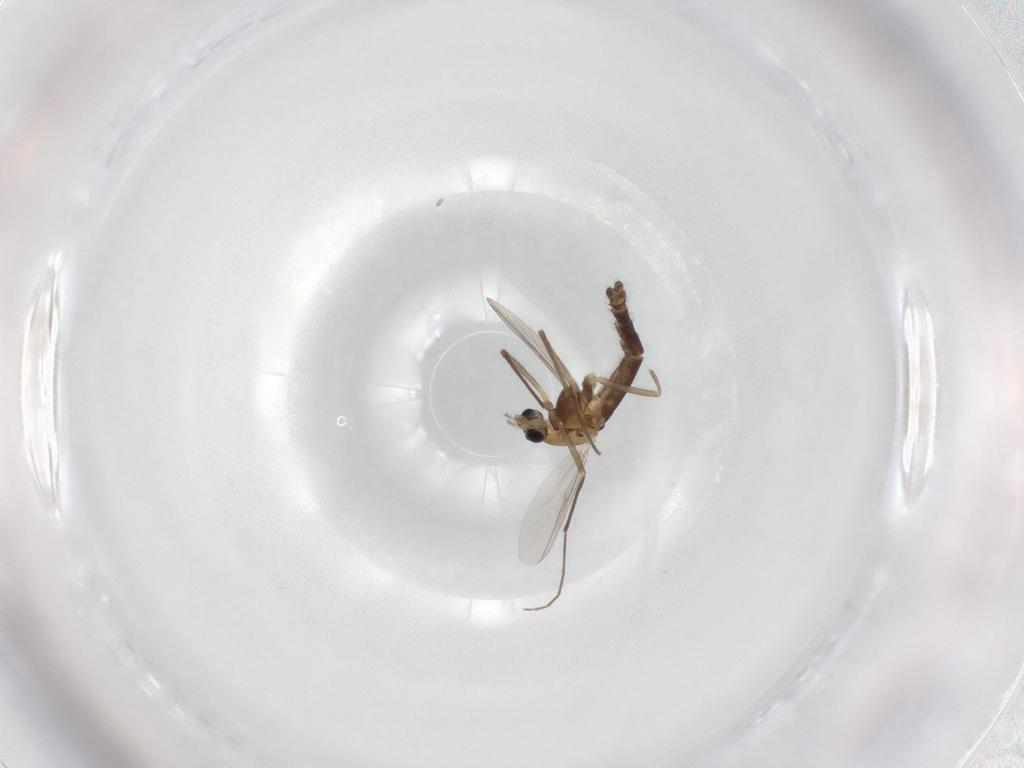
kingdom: Animalia
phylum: Arthropoda
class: Insecta
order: Diptera
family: Chironomidae
